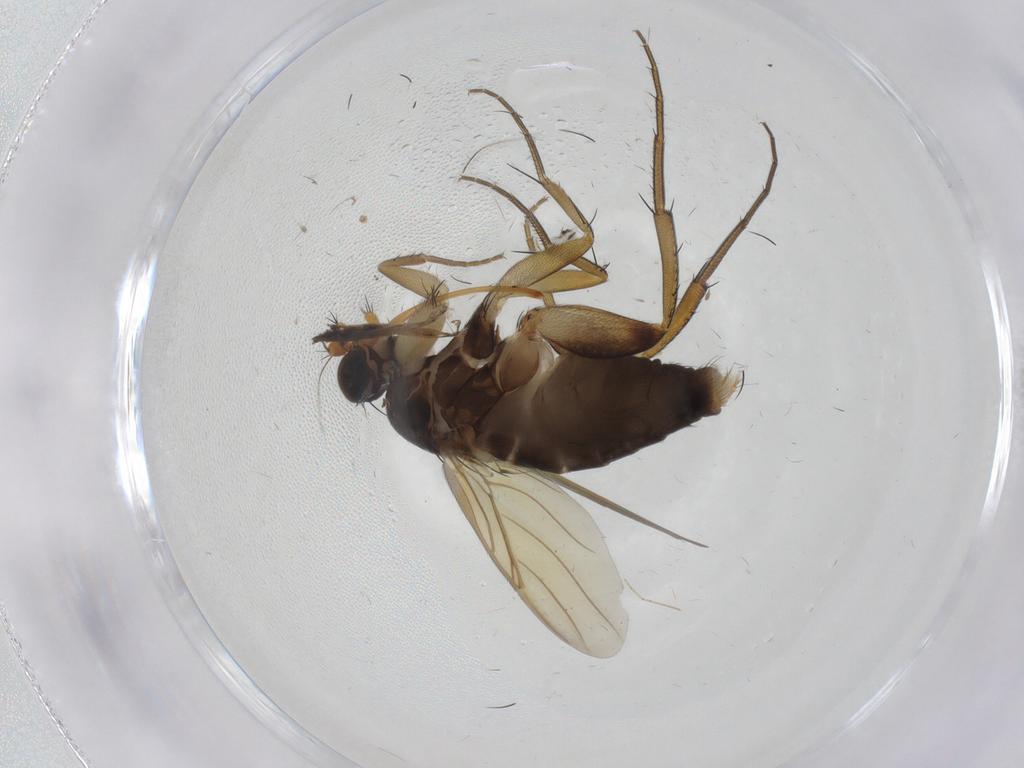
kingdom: Animalia
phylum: Arthropoda
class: Insecta
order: Diptera
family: Phoridae
